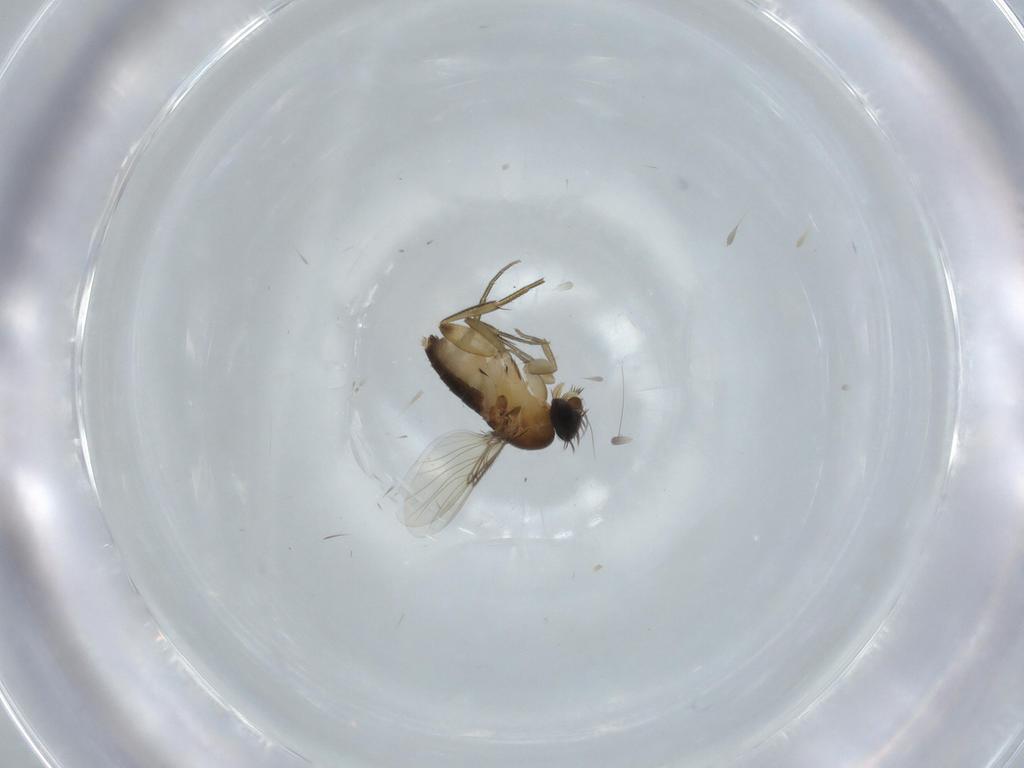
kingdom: Animalia
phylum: Arthropoda
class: Insecta
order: Diptera
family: Phoridae
